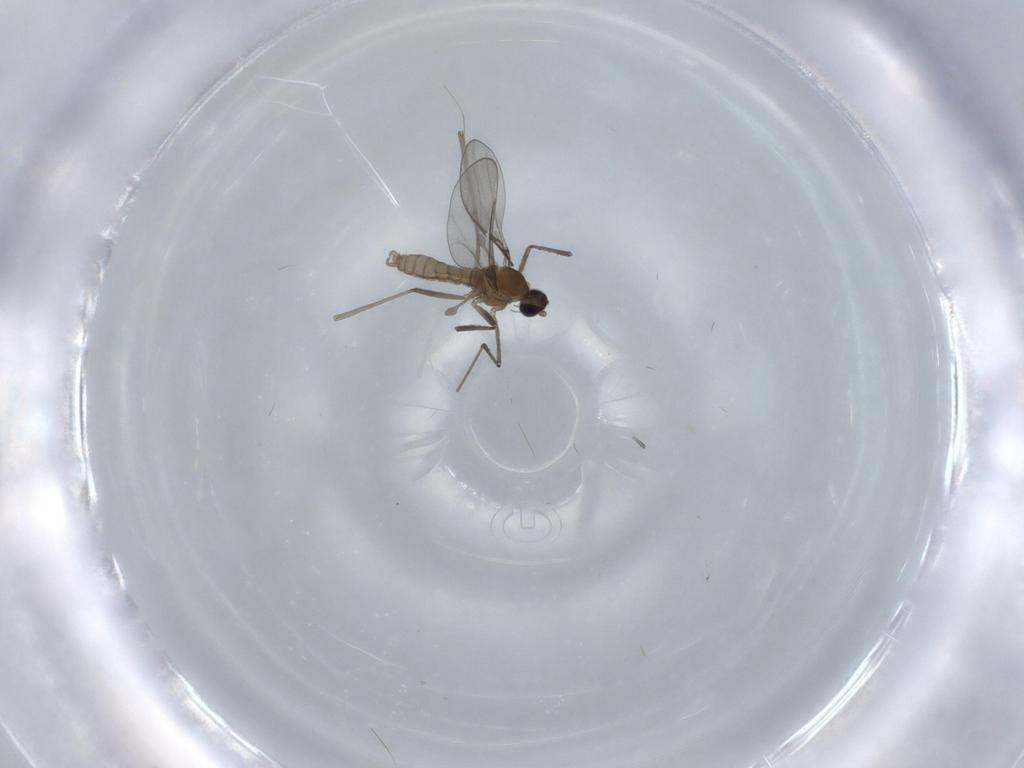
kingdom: Animalia
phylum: Arthropoda
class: Insecta
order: Diptera
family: Cecidomyiidae
